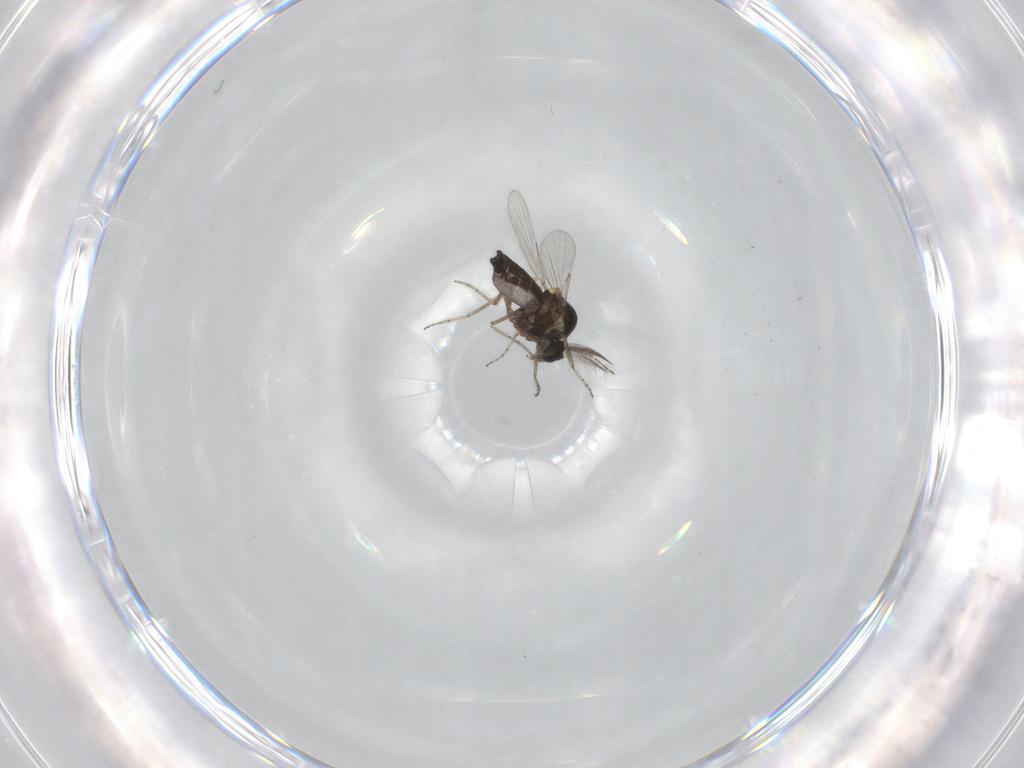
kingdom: Animalia
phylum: Arthropoda
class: Insecta
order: Diptera
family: Ceratopogonidae
